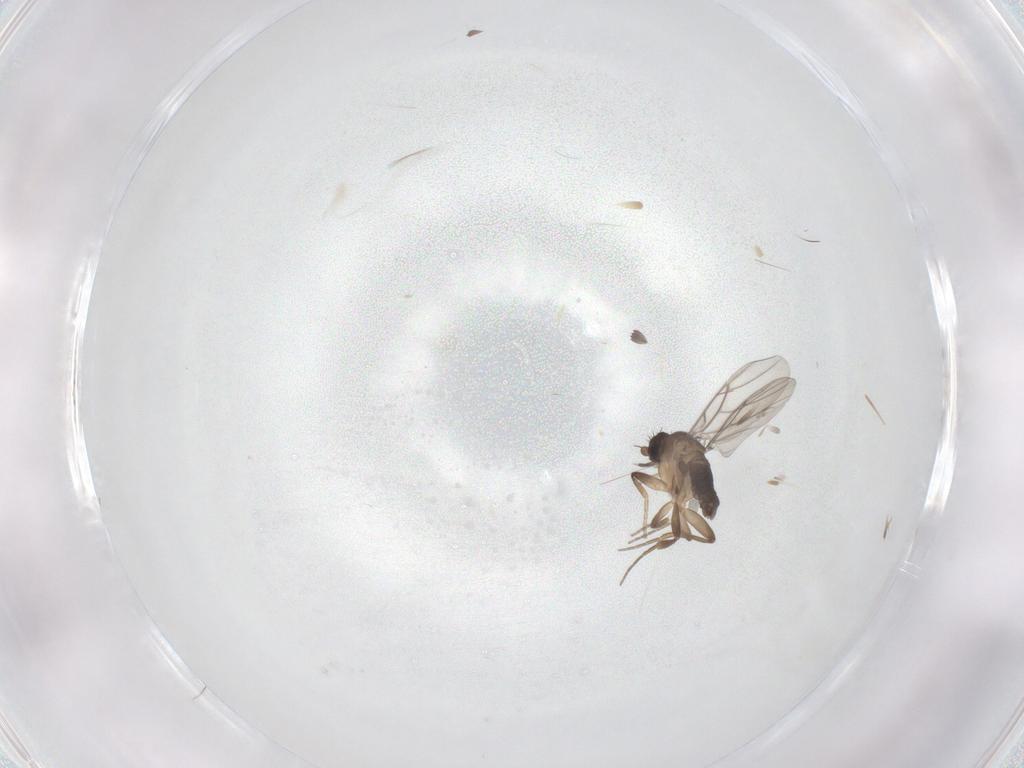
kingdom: Animalia
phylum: Arthropoda
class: Insecta
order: Diptera
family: Phoridae
